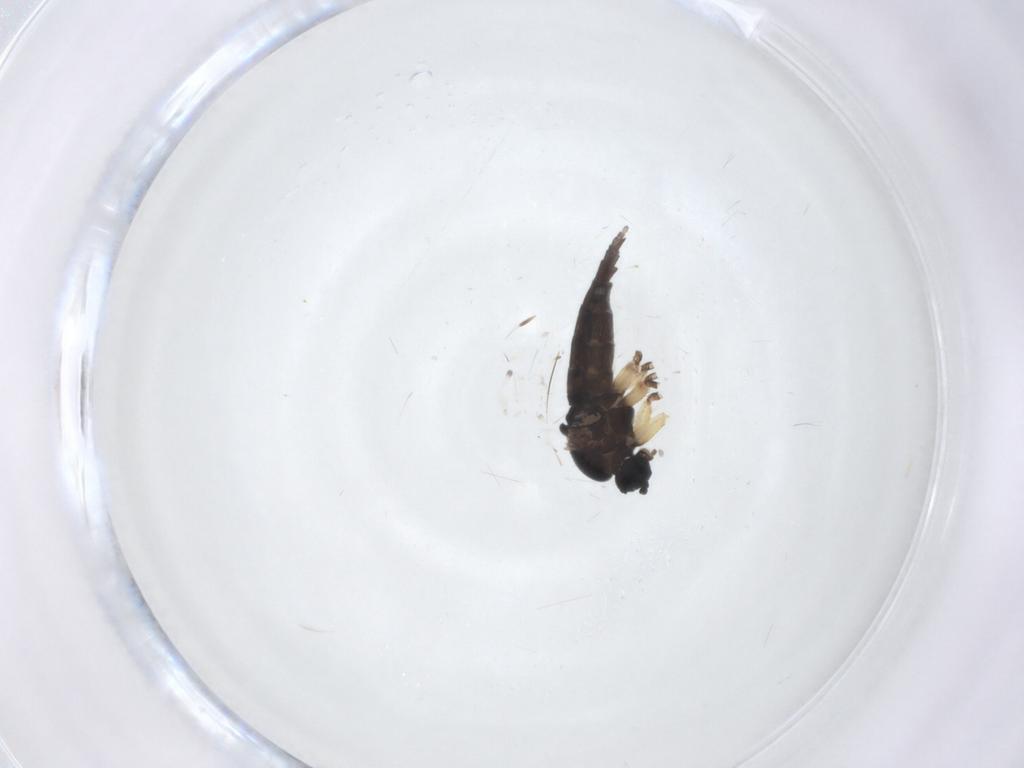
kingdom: Animalia
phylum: Arthropoda
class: Insecta
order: Diptera
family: Sciaridae
